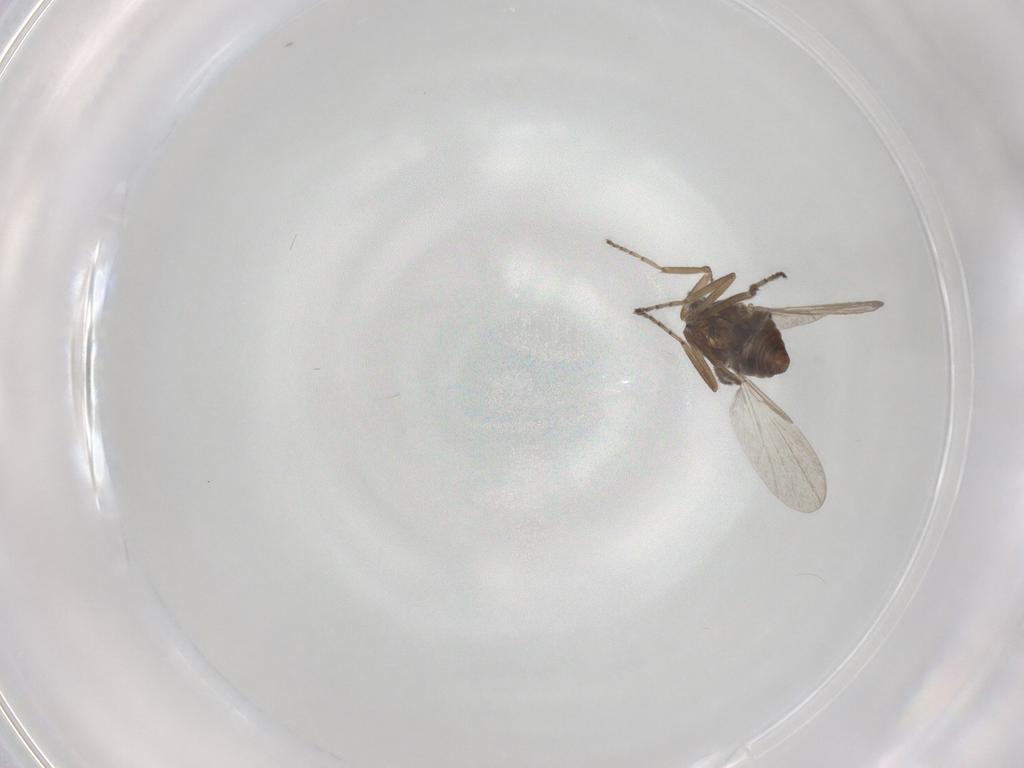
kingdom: Animalia
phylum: Arthropoda
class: Insecta
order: Diptera
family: Ceratopogonidae
